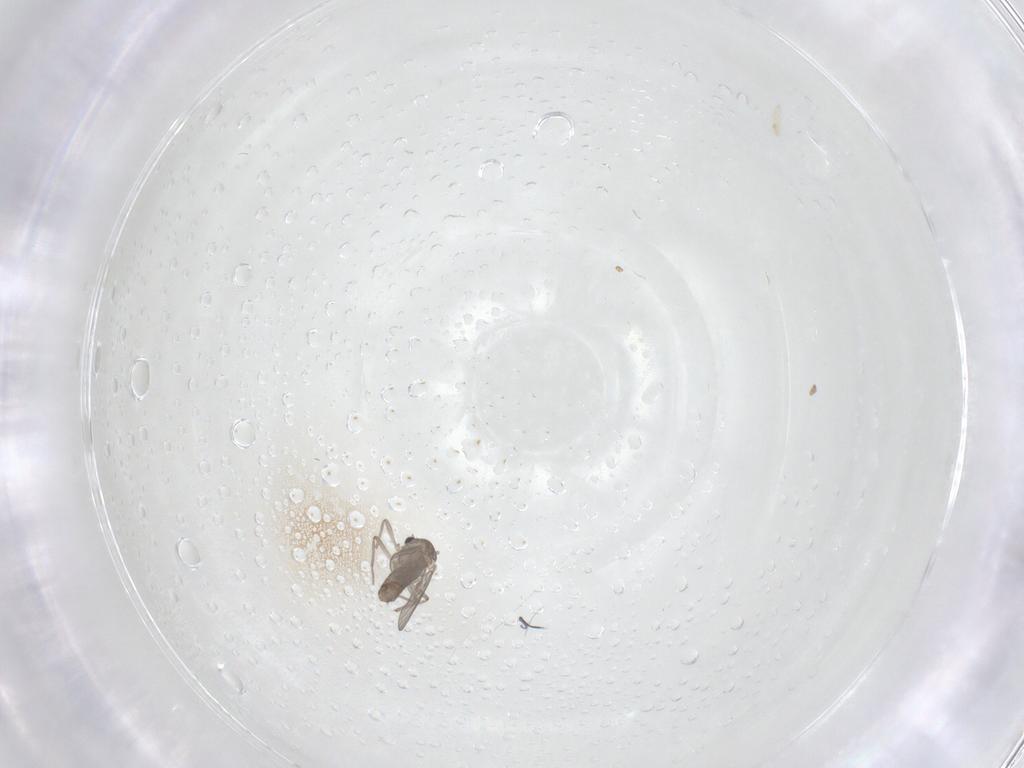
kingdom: Animalia
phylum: Arthropoda
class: Insecta
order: Diptera
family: Chironomidae
